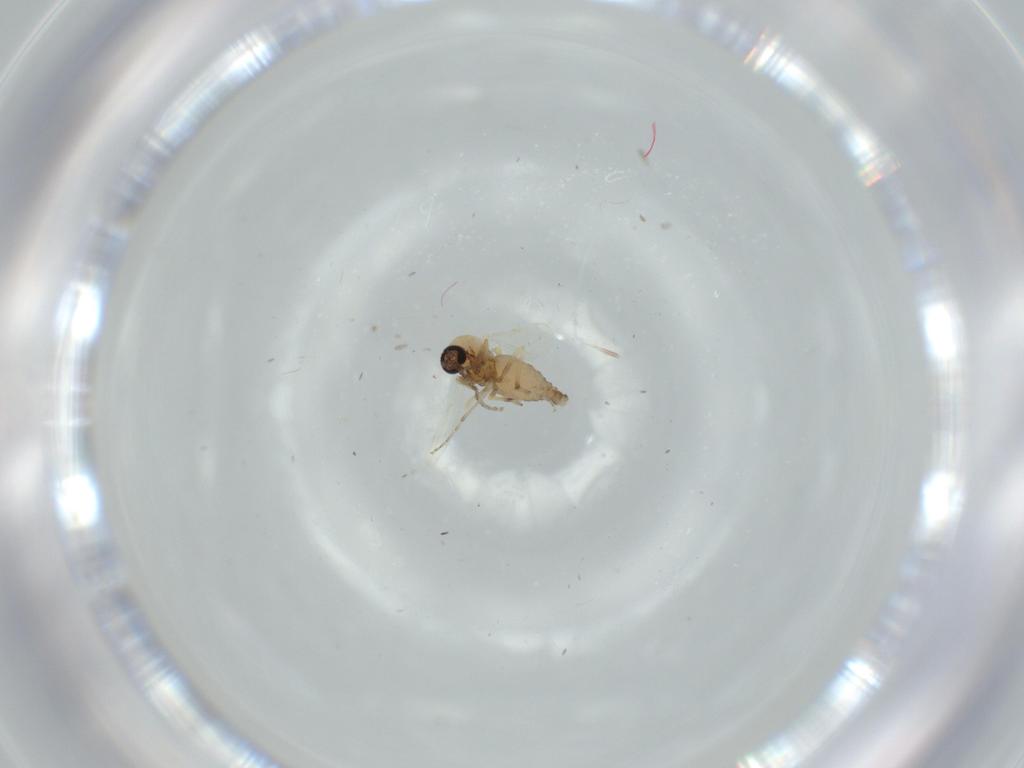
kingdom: Animalia
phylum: Arthropoda
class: Insecta
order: Diptera
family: Ceratopogonidae
